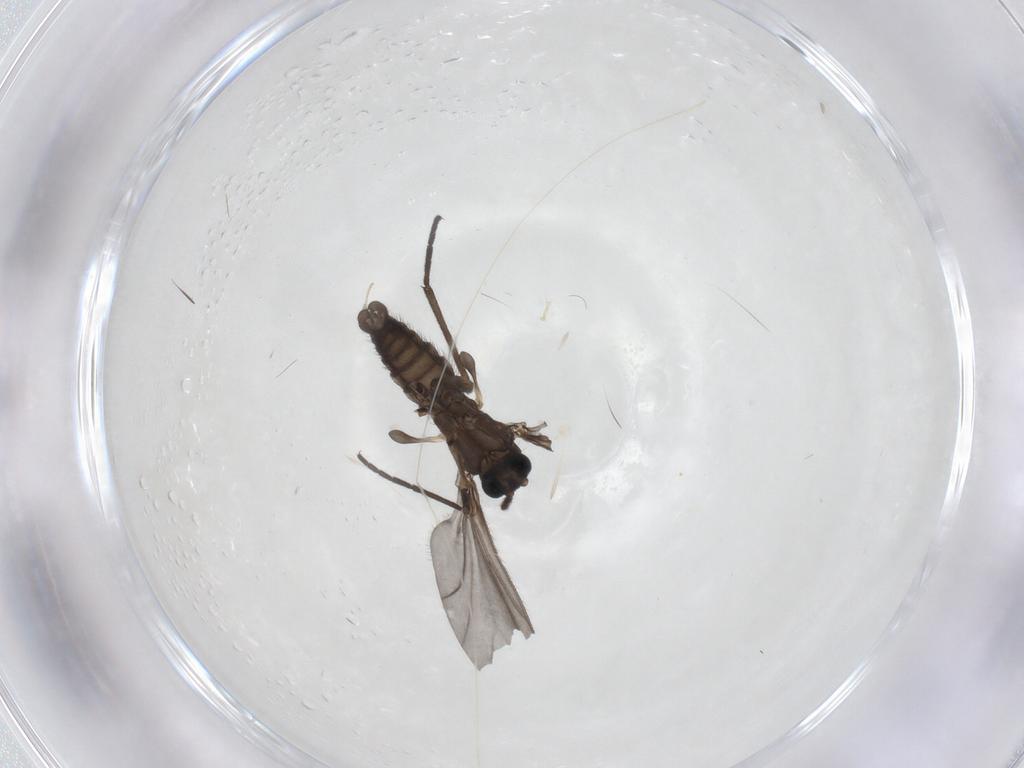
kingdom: Animalia
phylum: Arthropoda
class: Insecta
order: Diptera
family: Sciaridae
